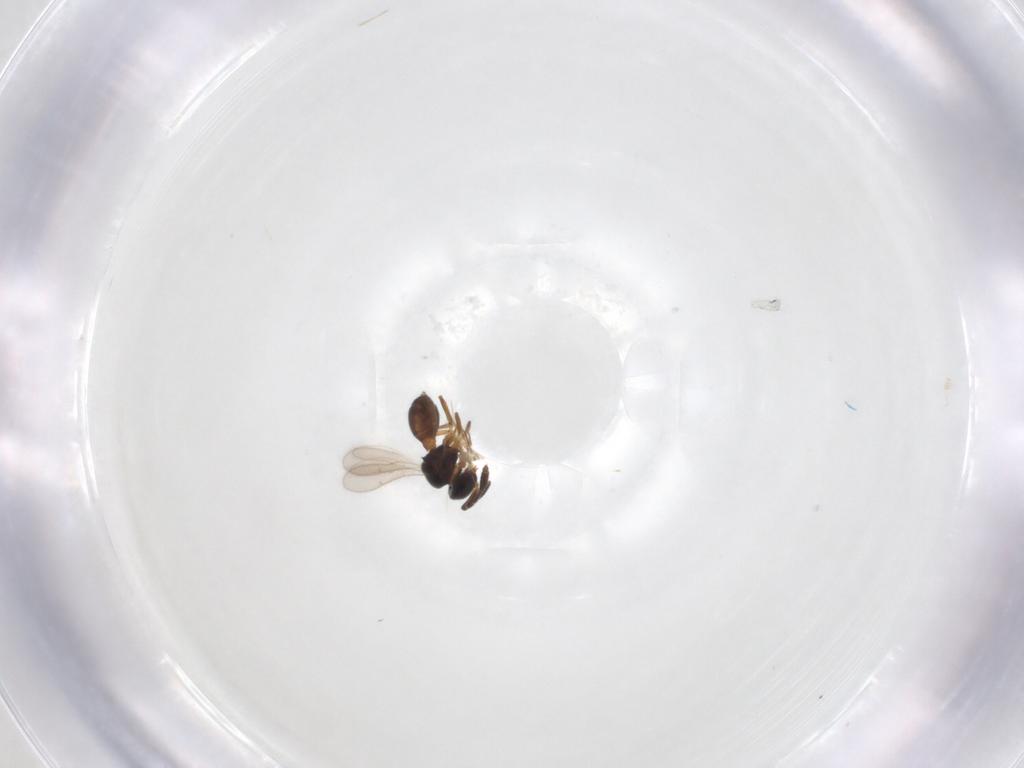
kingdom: Animalia
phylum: Arthropoda
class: Insecta
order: Hymenoptera
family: Scelionidae
